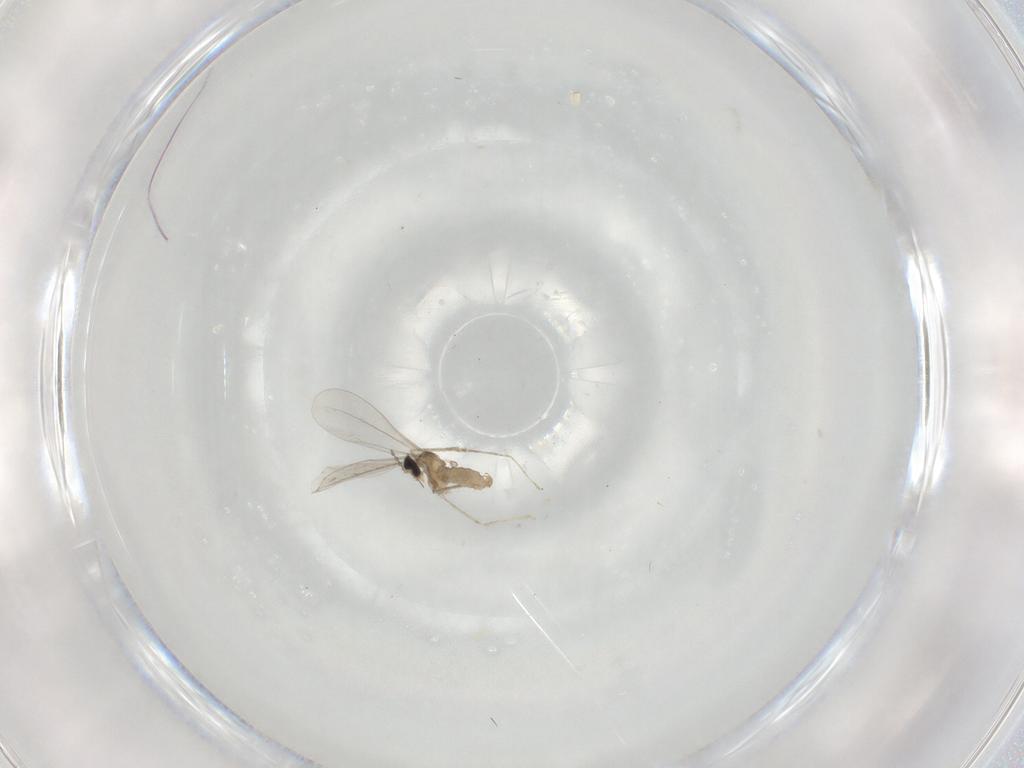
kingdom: Animalia
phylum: Arthropoda
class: Insecta
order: Diptera
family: Cecidomyiidae
